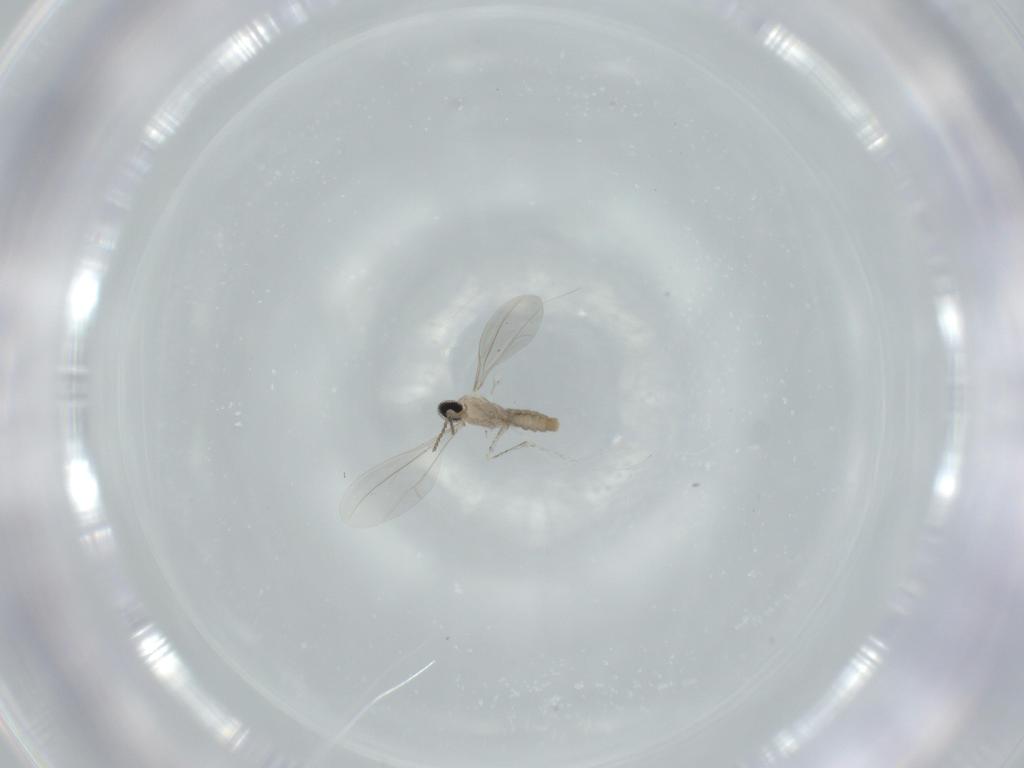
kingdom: Animalia
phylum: Arthropoda
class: Insecta
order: Diptera
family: Cecidomyiidae
